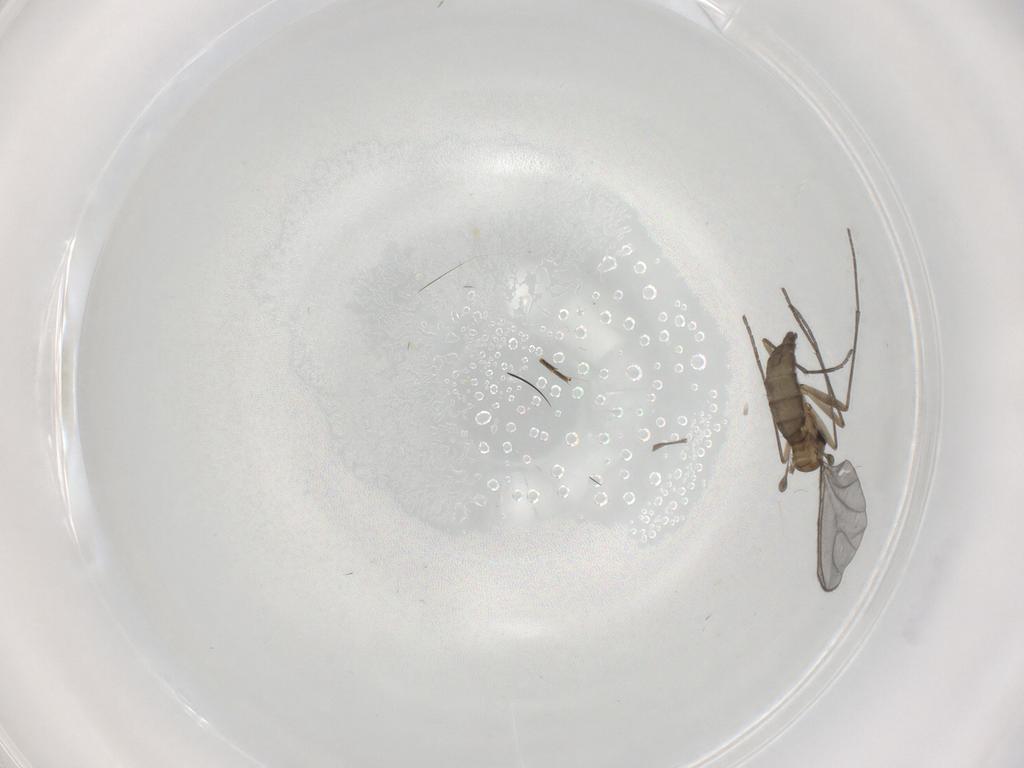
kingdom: Animalia
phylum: Arthropoda
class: Insecta
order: Diptera
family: Sciaridae
